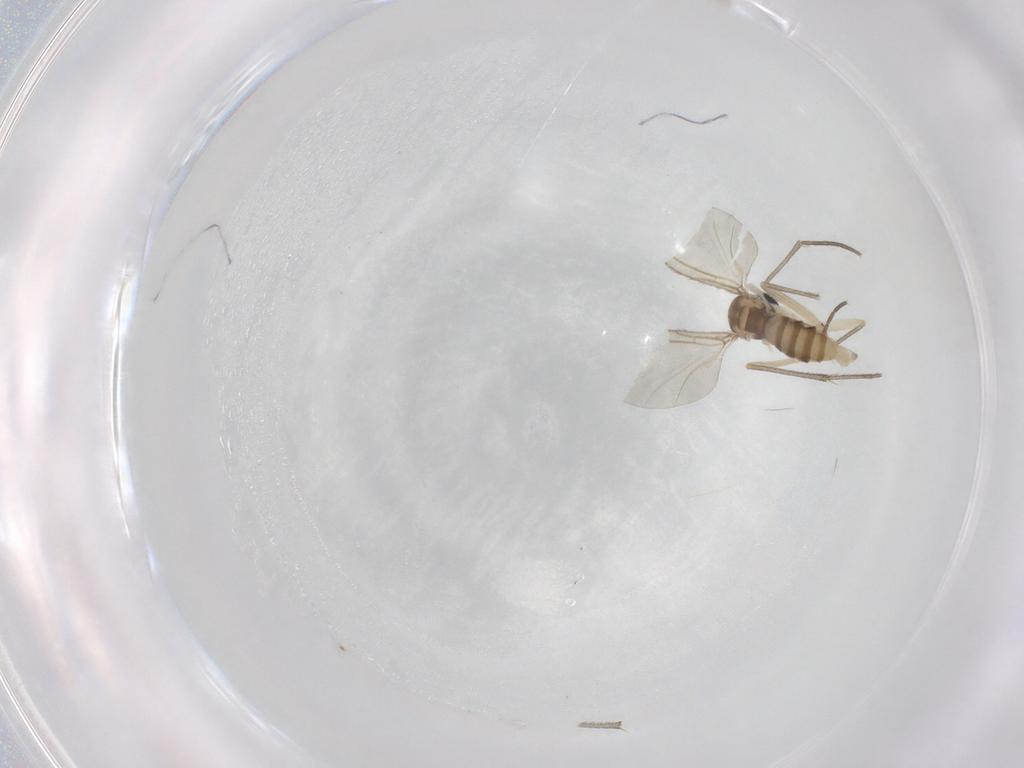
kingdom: Animalia
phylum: Arthropoda
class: Insecta
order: Diptera
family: Sciaridae
